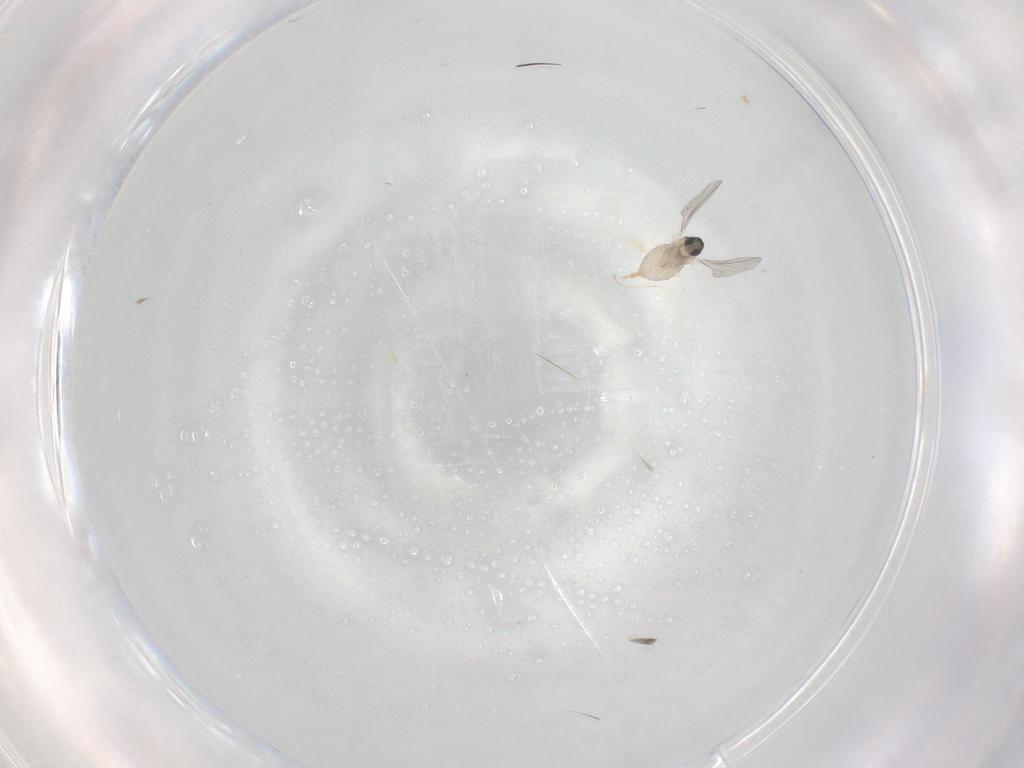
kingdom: Animalia
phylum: Arthropoda
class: Insecta
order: Diptera
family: Cecidomyiidae
